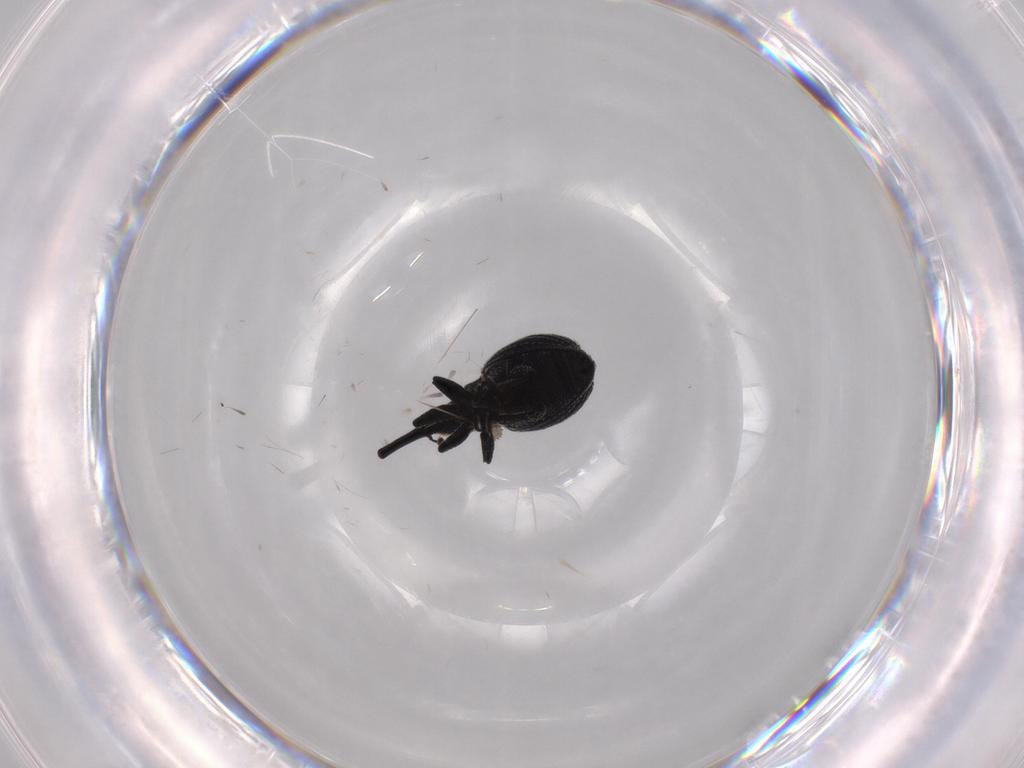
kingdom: Animalia
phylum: Arthropoda
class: Insecta
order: Coleoptera
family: Brentidae
